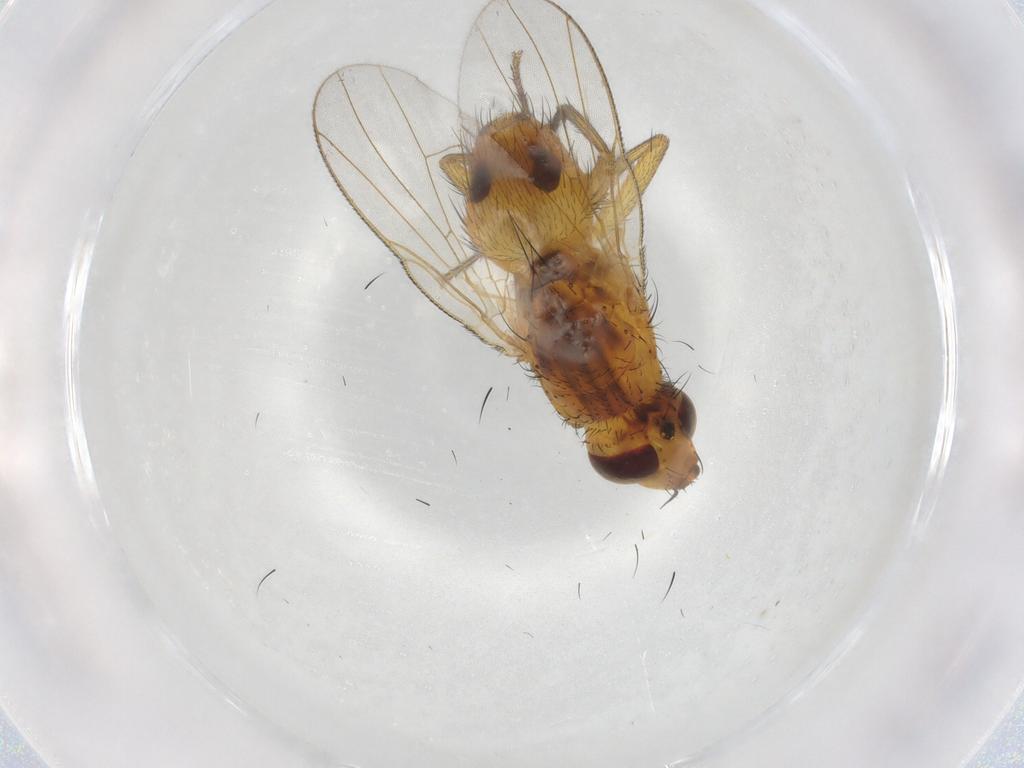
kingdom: Animalia
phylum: Arthropoda
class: Insecta
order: Diptera
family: Muscidae
